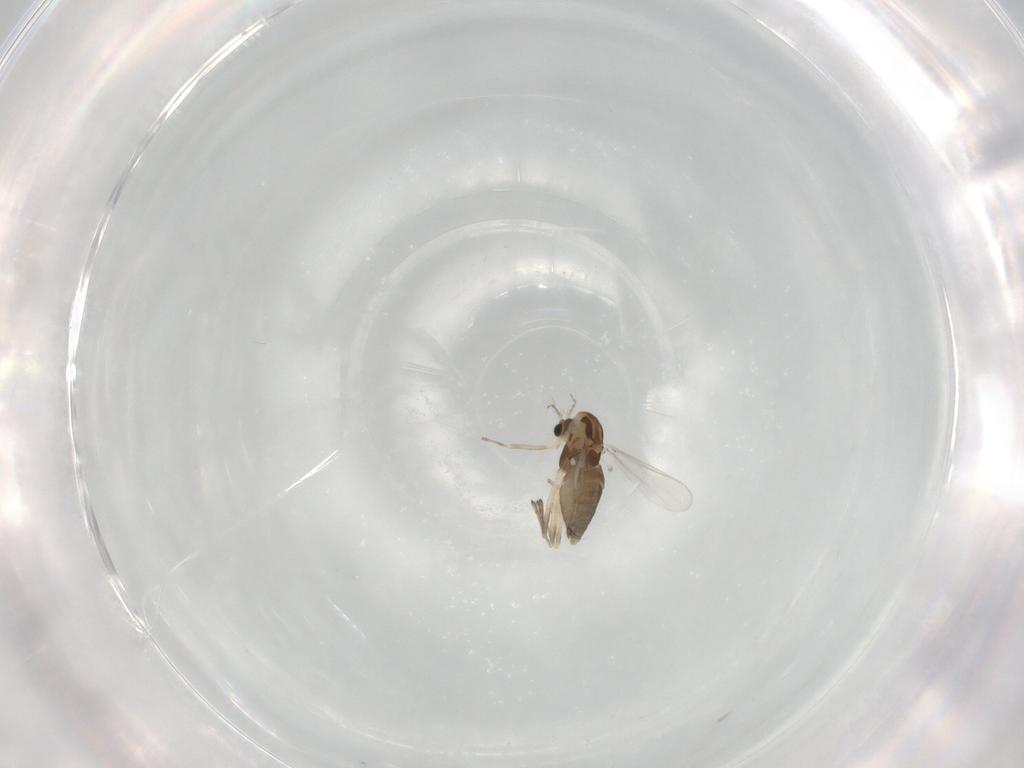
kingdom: Animalia
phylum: Arthropoda
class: Insecta
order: Diptera
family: Chironomidae
